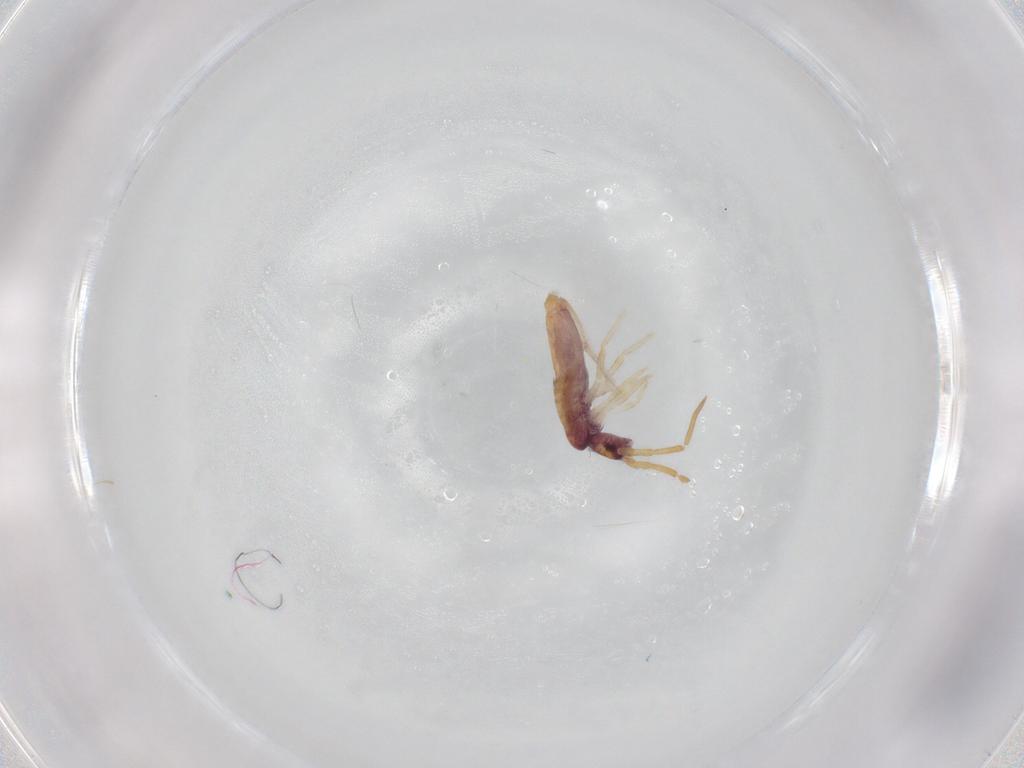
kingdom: Animalia
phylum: Arthropoda
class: Collembola
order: Entomobryomorpha
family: Entomobryidae
